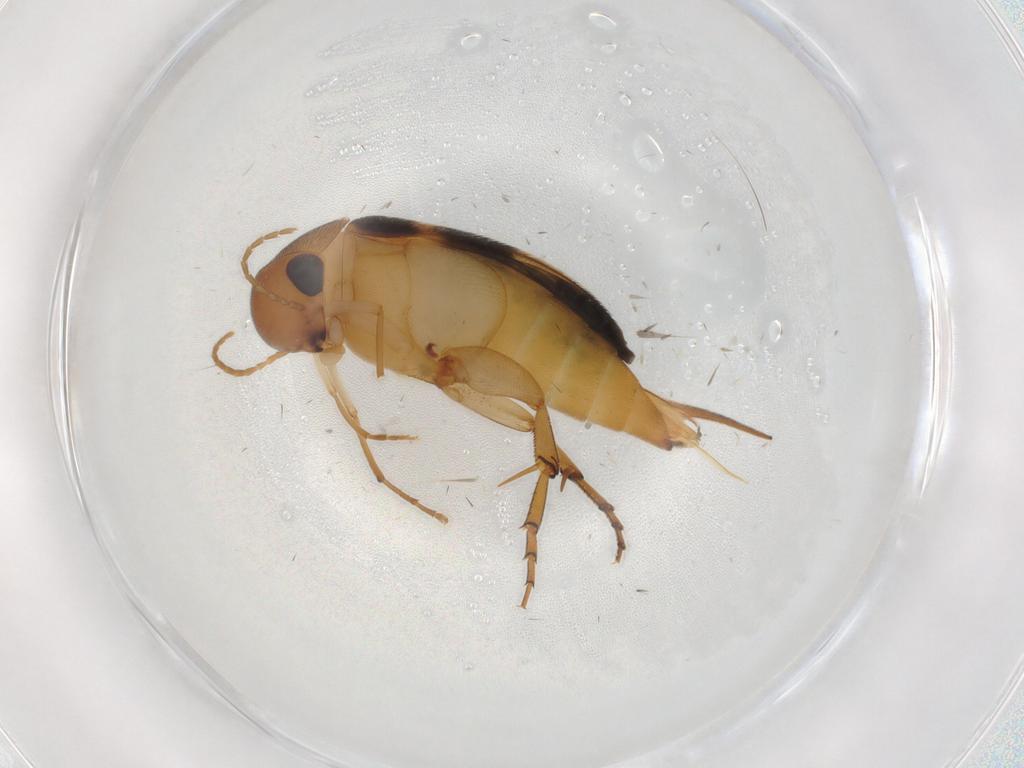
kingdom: Animalia
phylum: Arthropoda
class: Insecta
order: Coleoptera
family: Mordellidae
